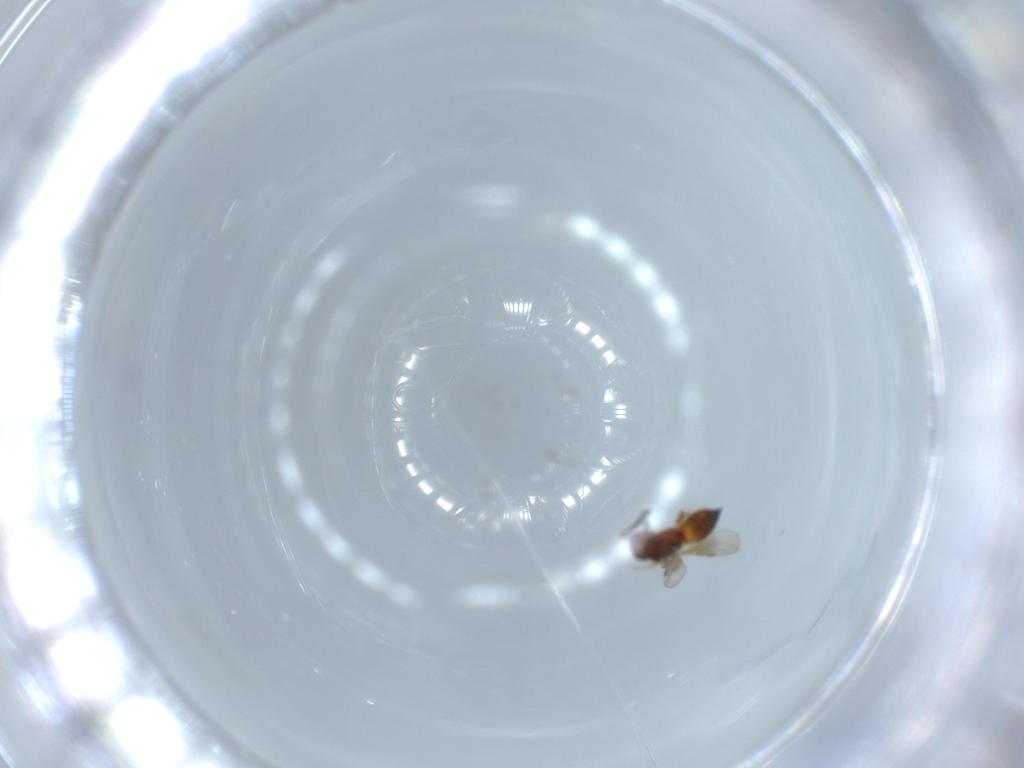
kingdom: Animalia
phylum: Arthropoda
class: Insecta
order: Hymenoptera
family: Ceraphronidae
